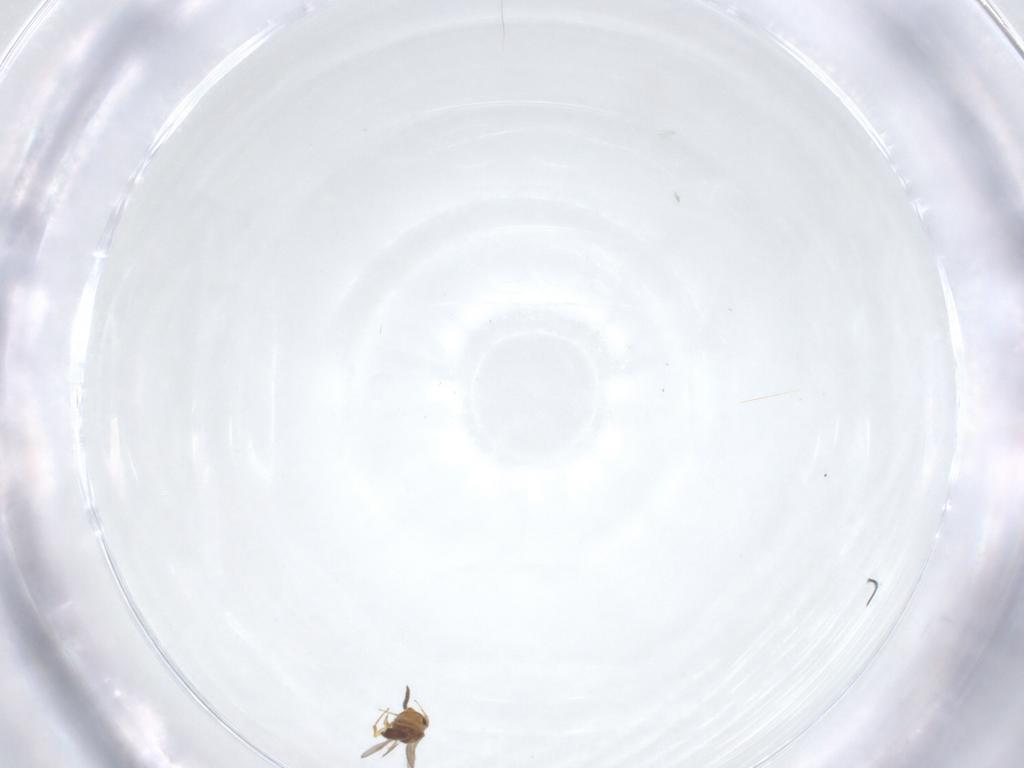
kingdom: Animalia
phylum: Arthropoda
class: Insecta
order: Hymenoptera
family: Scelionidae
